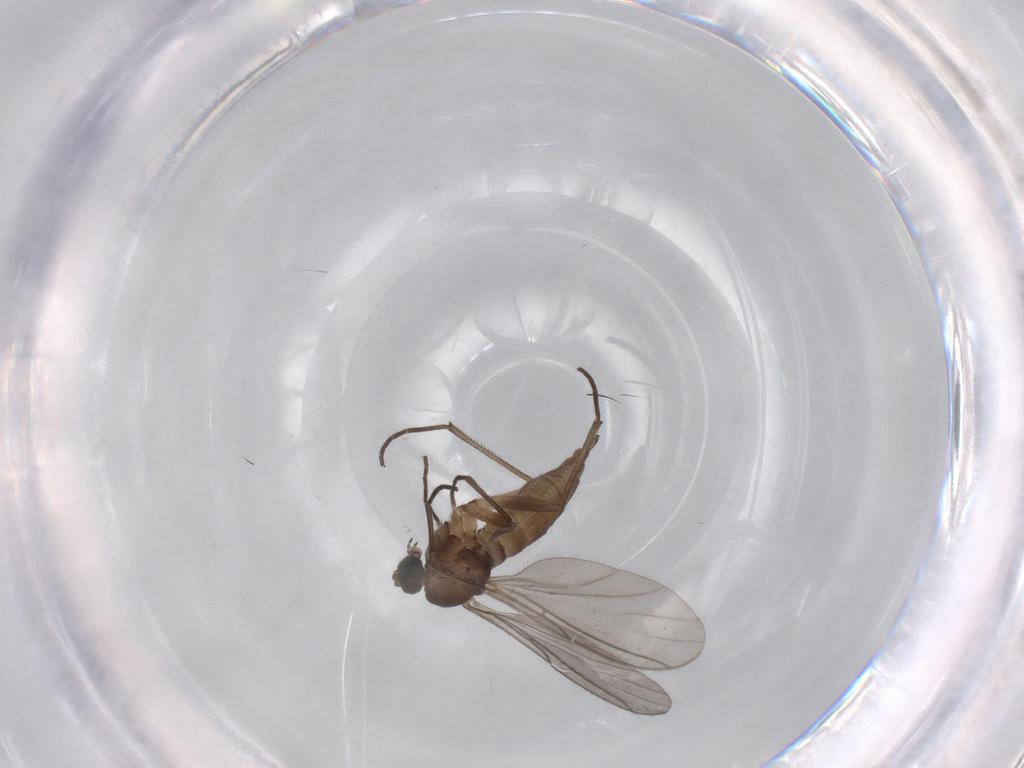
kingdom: Animalia
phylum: Arthropoda
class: Insecta
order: Diptera
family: Sciaridae
